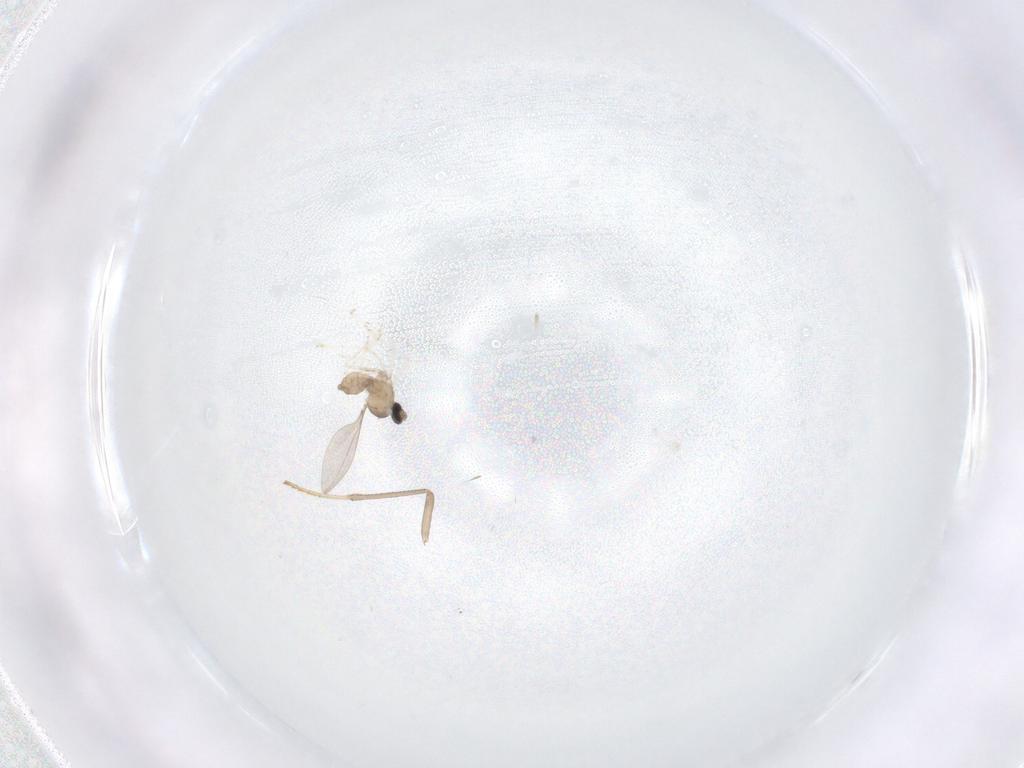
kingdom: Animalia
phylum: Arthropoda
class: Insecta
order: Diptera
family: Cecidomyiidae
